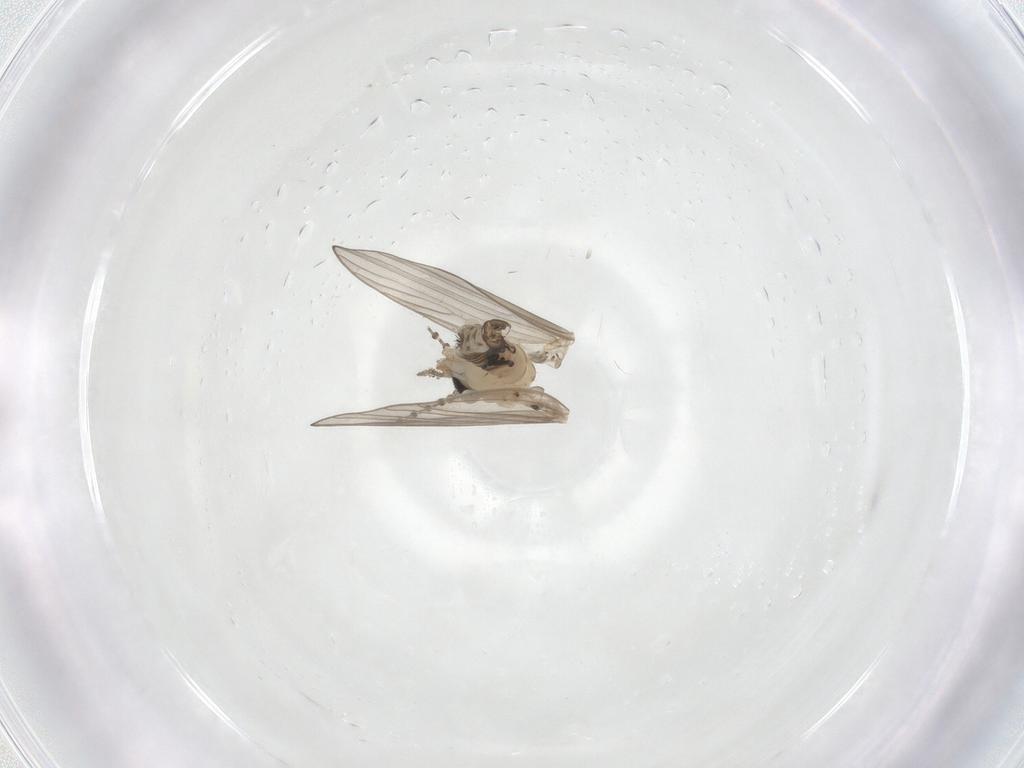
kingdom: Animalia
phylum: Arthropoda
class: Insecta
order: Diptera
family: Psychodidae
